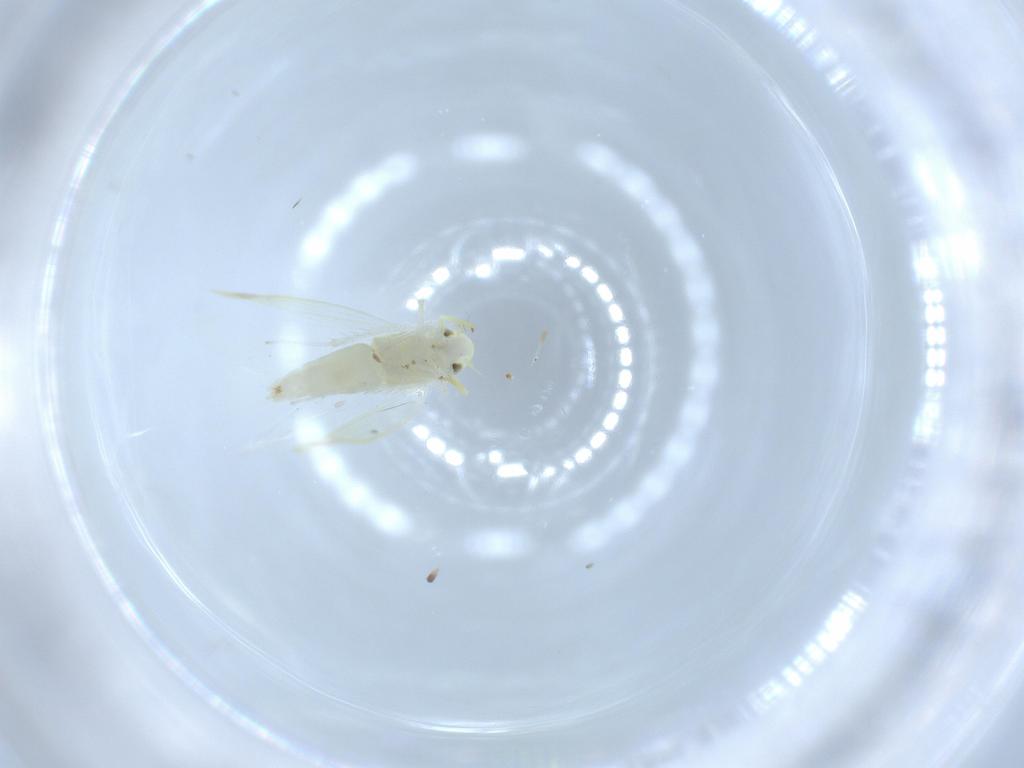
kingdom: Animalia
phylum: Arthropoda
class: Insecta
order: Hemiptera
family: Cicadellidae
